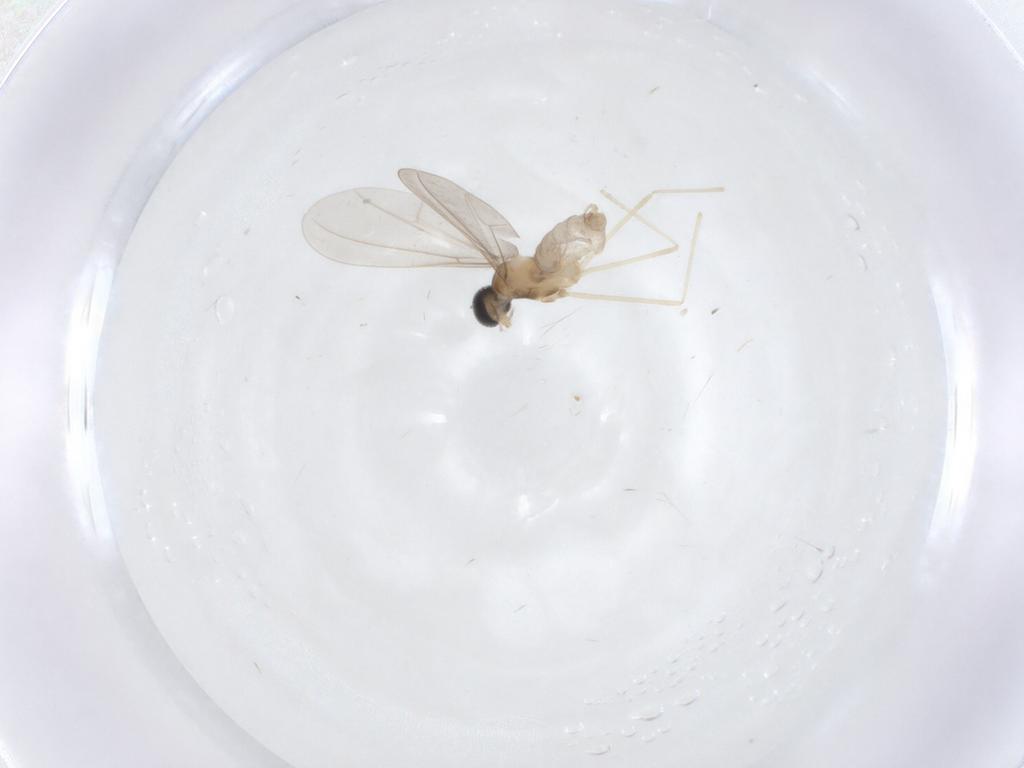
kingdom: Animalia
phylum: Arthropoda
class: Insecta
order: Diptera
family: Cecidomyiidae
